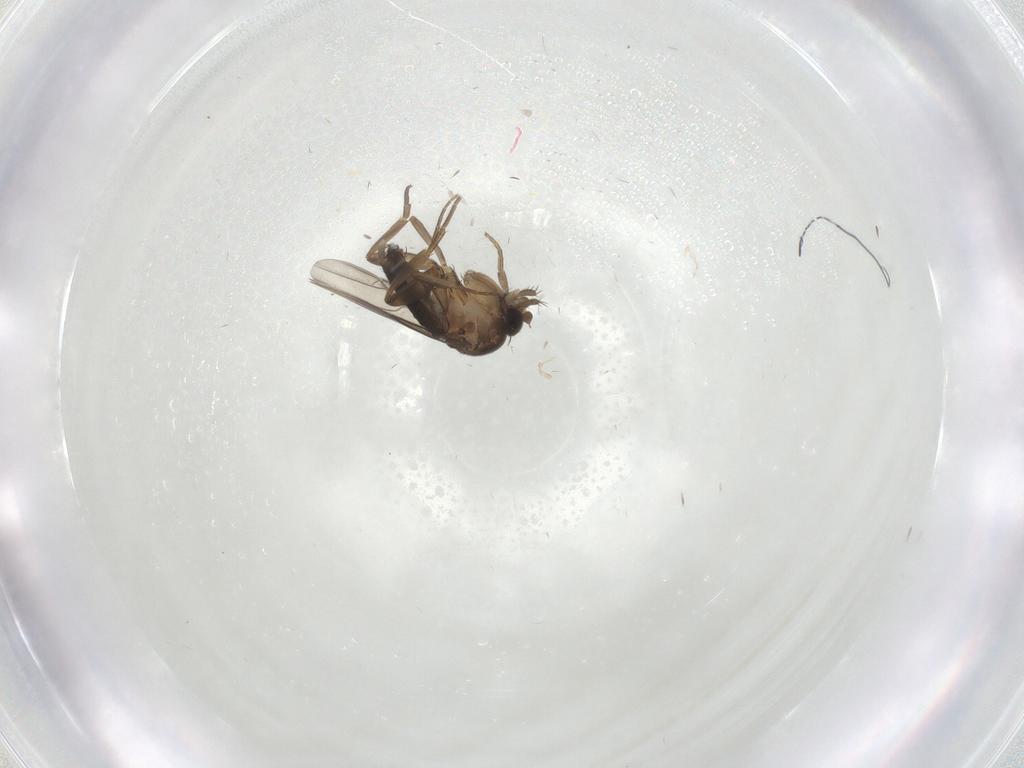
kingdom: Animalia
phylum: Arthropoda
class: Insecta
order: Diptera
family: Phoridae
